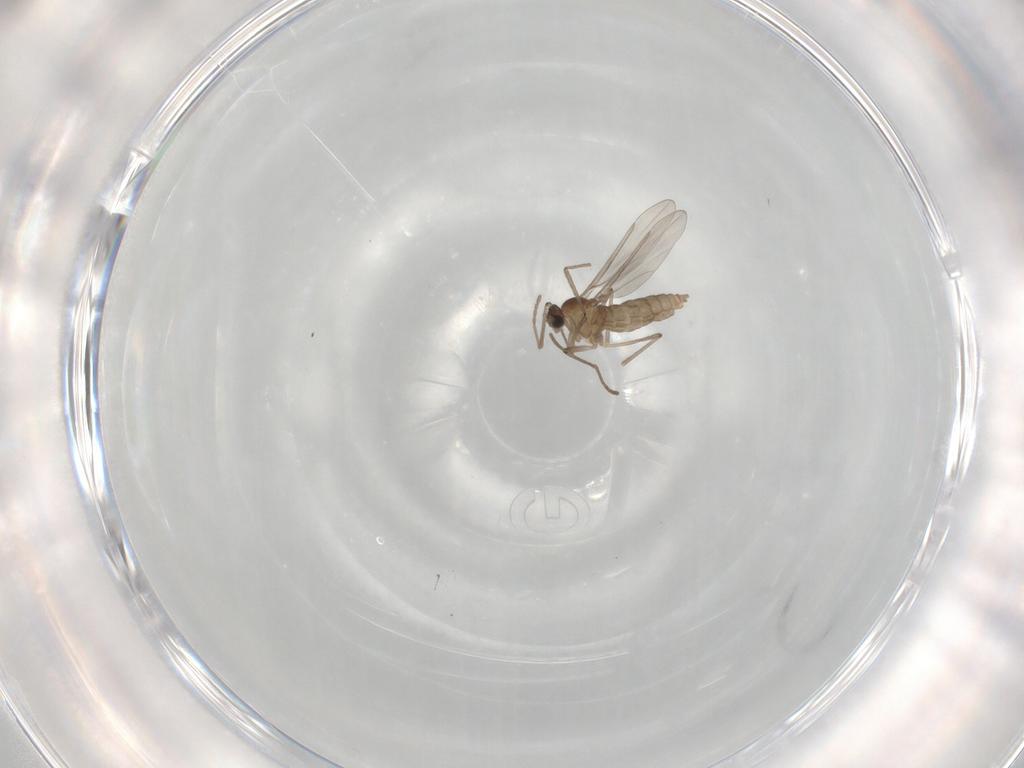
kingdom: Animalia
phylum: Arthropoda
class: Insecta
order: Diptera
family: Cecidomyiidae
